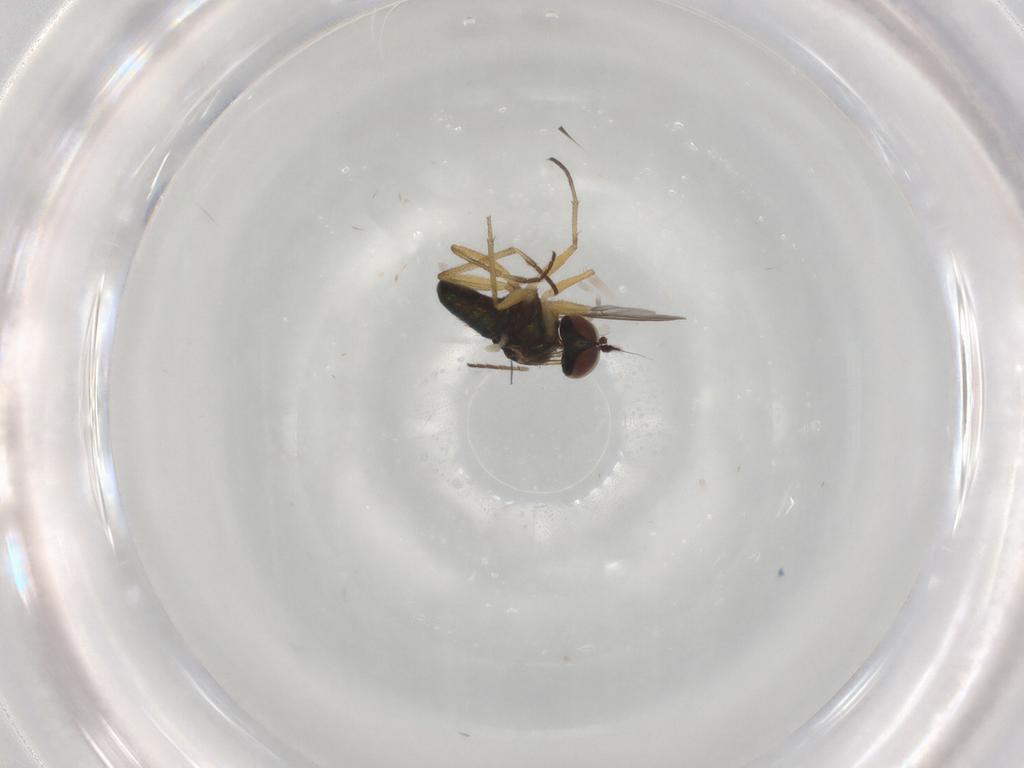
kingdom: Animalia
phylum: Arthropoda
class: Insecta
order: Diptera
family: Dolichopodidae
